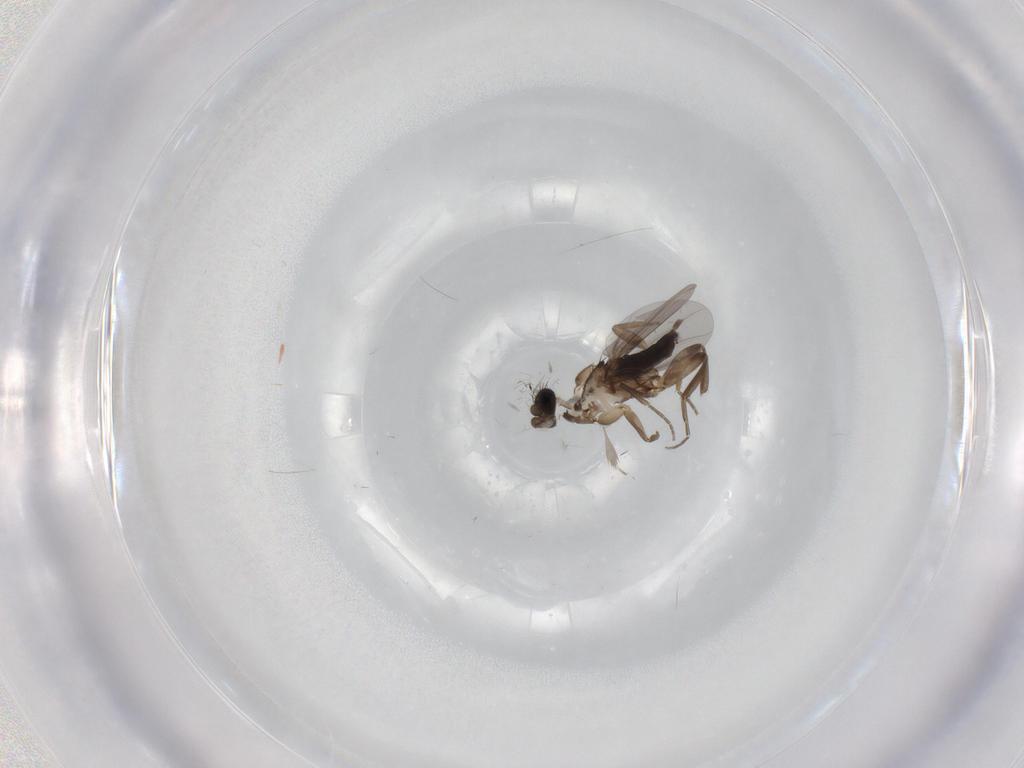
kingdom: Animalia
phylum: Arthropoda
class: Insecta
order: Diptera
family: Phoridae
